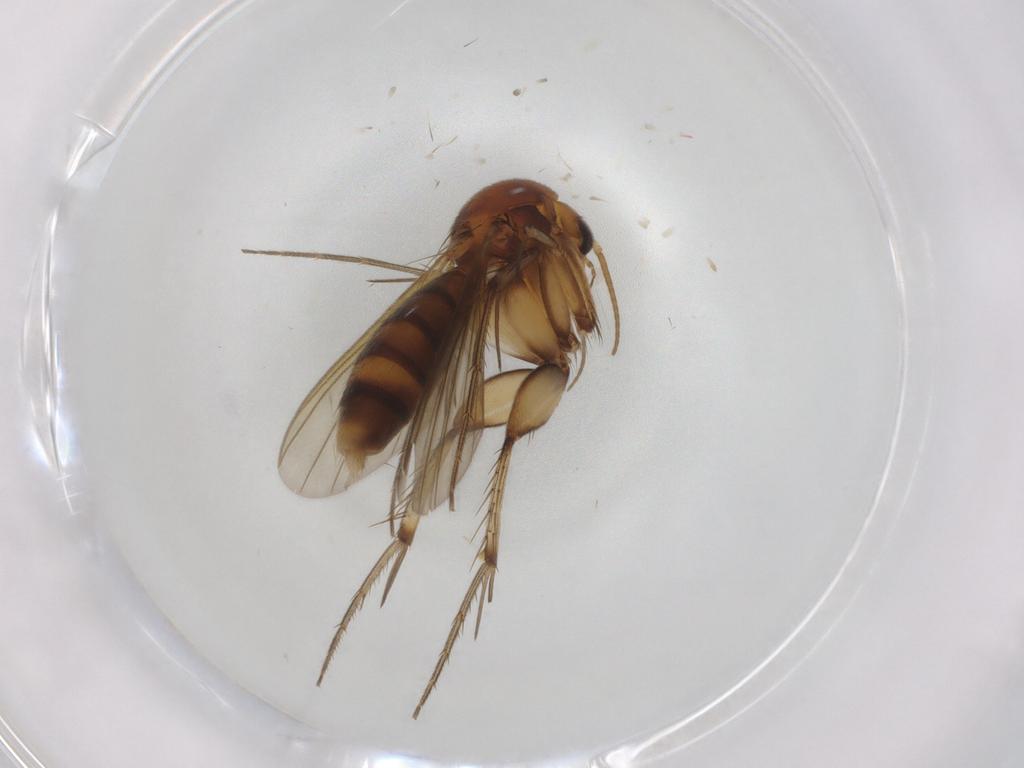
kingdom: Animalia
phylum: Arthropoda
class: Insecta
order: Diptera
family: Mycetophilidae
